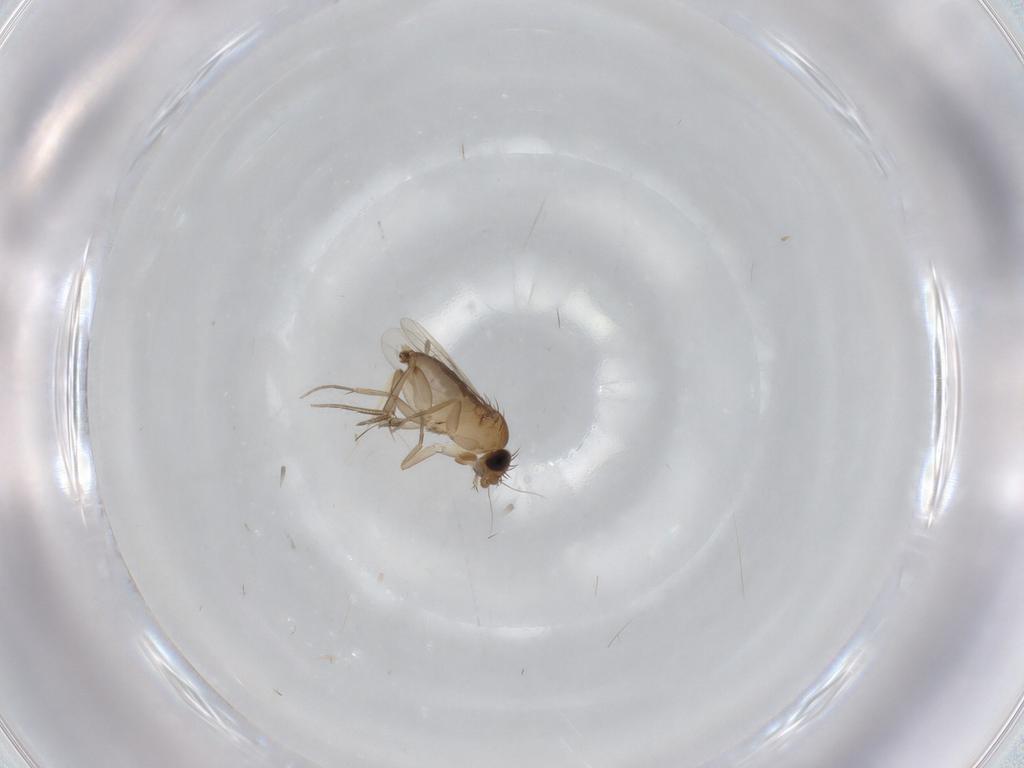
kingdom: Animalia
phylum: Arthropoda
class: Insecta
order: Diptera
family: Phoridae
